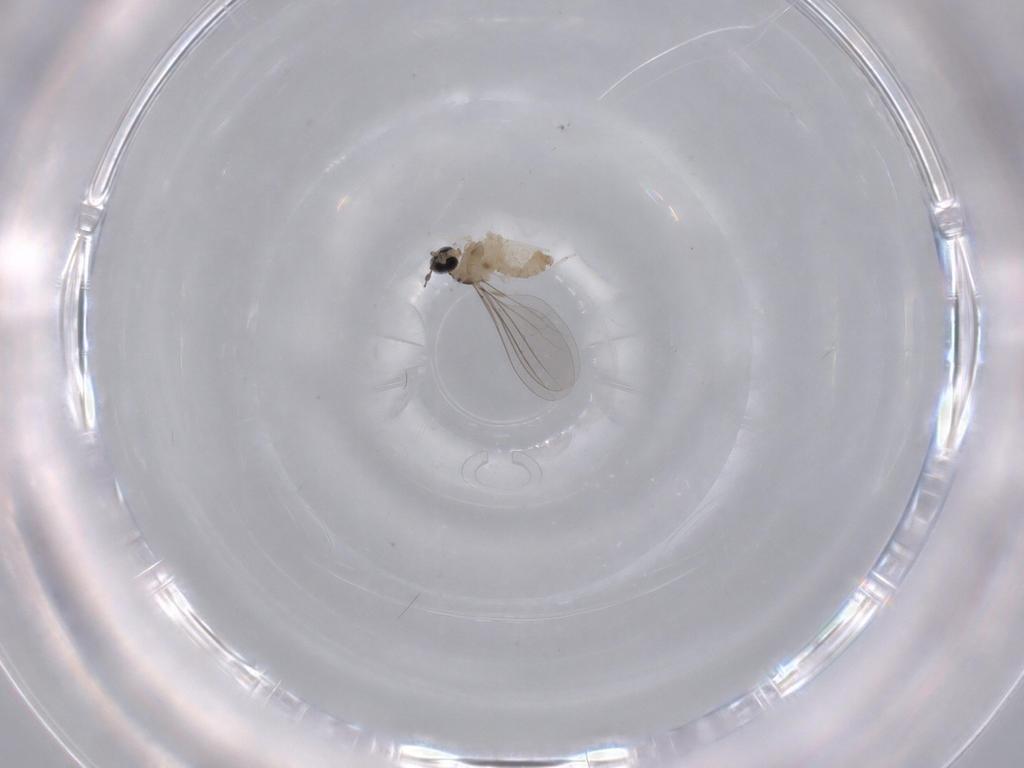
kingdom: Animalia
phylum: Arthropoda
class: Insecta
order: Diptera
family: Cecidomyiidae
